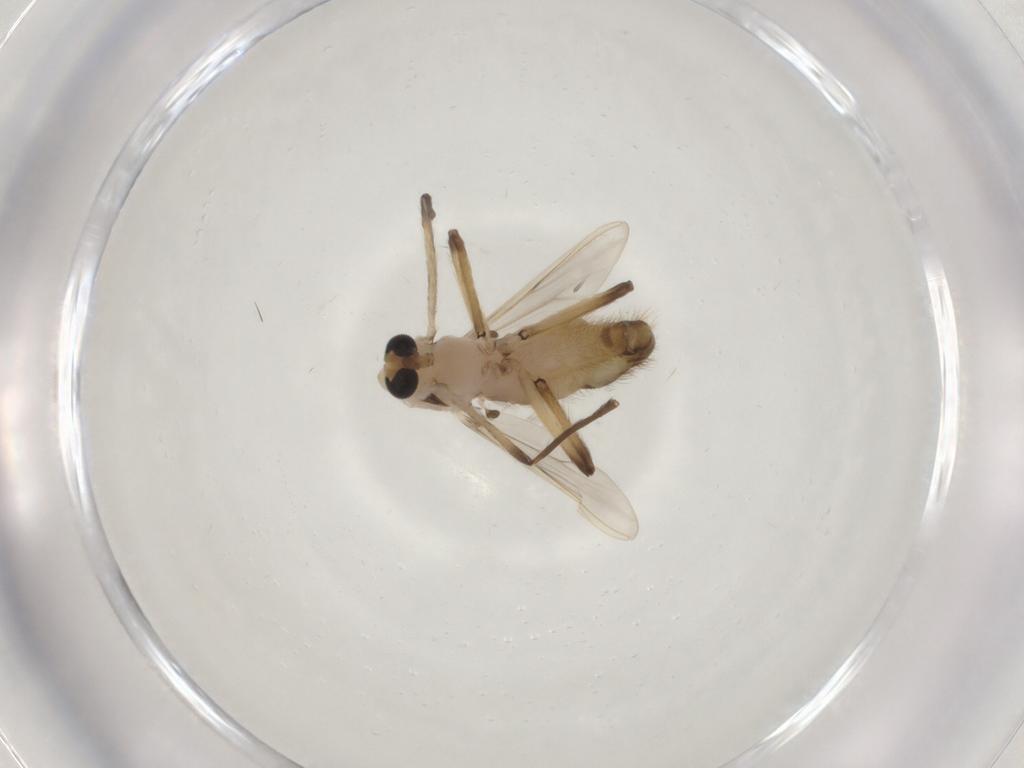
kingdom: Animalia
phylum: Arthropoda
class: Insecta
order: Diptera
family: Chironomidae
